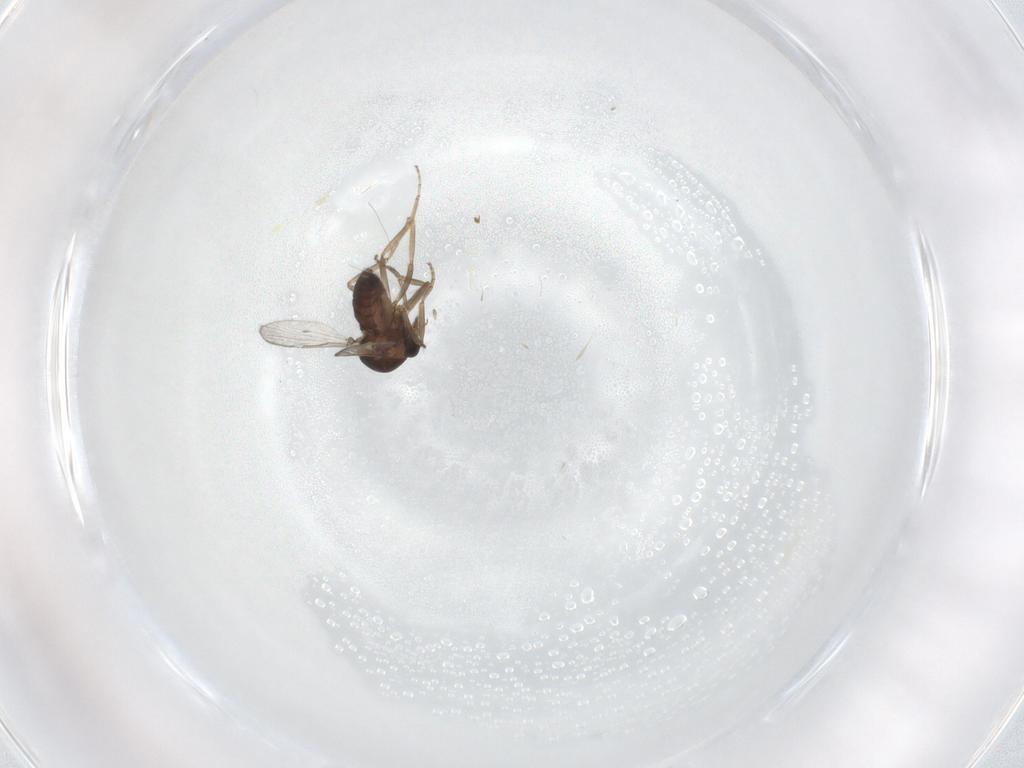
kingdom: Animalia
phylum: Arthropoda
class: Insecta
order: Diptera
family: Ceratopogonidae
